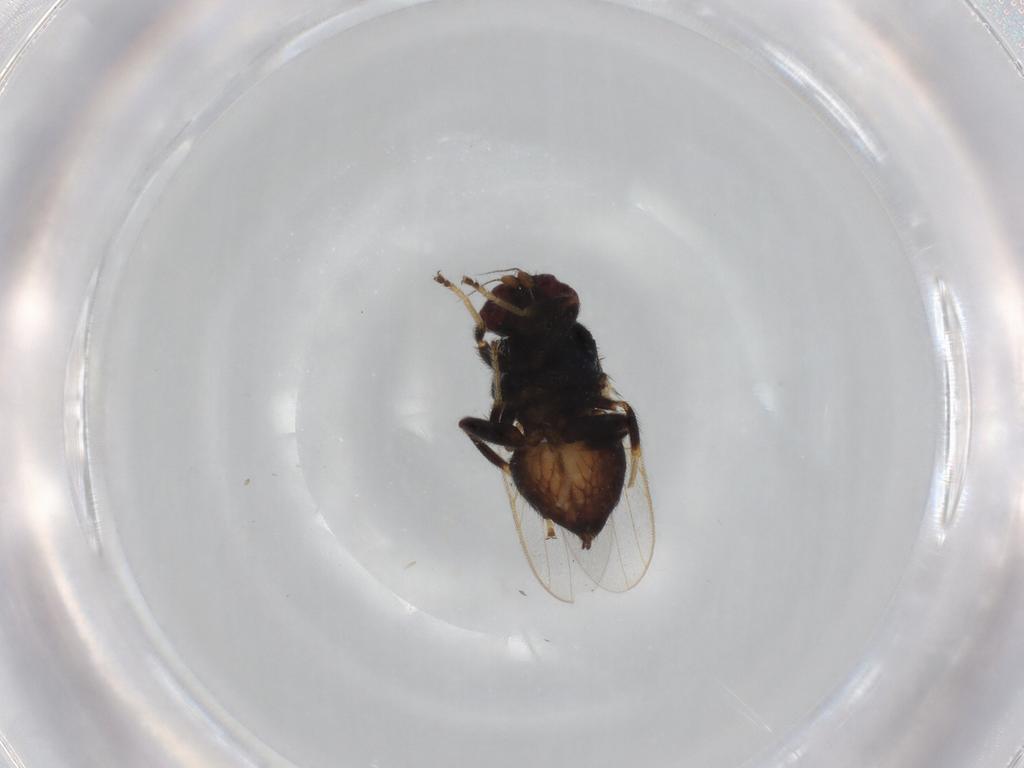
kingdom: Animalia
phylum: Arthropoda
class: Insecta
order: Diptera
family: Chloropidae
